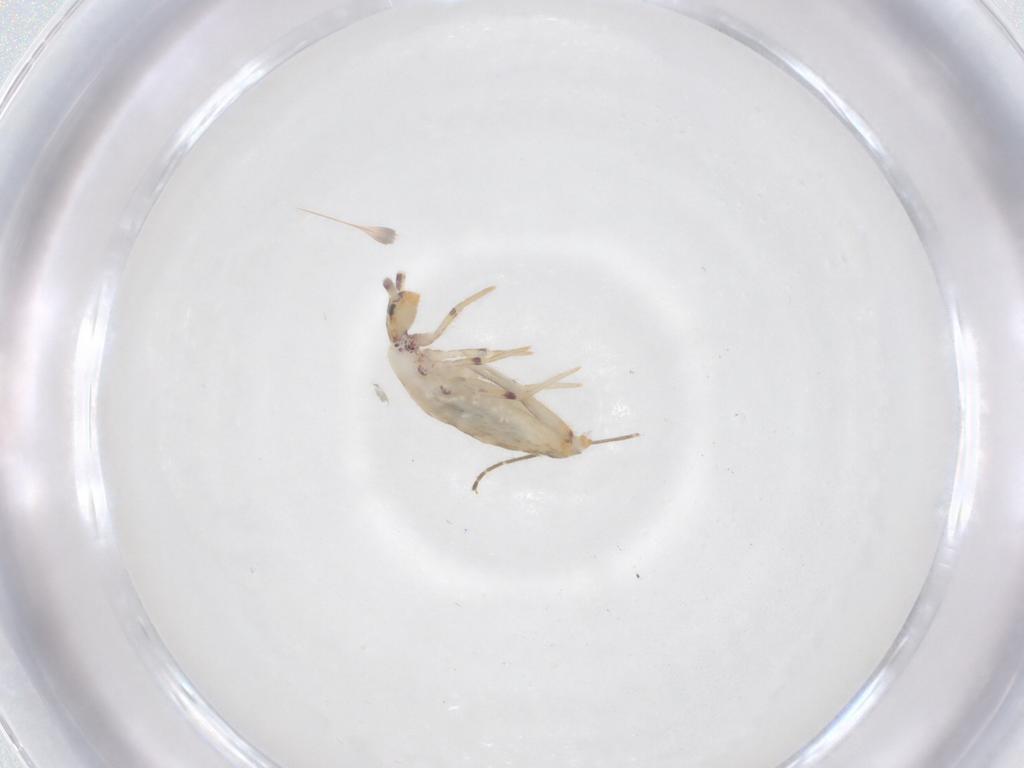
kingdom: Animalia
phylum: Arthropoda
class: Collembola
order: Entomobryomorpha
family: Entomobryidae
